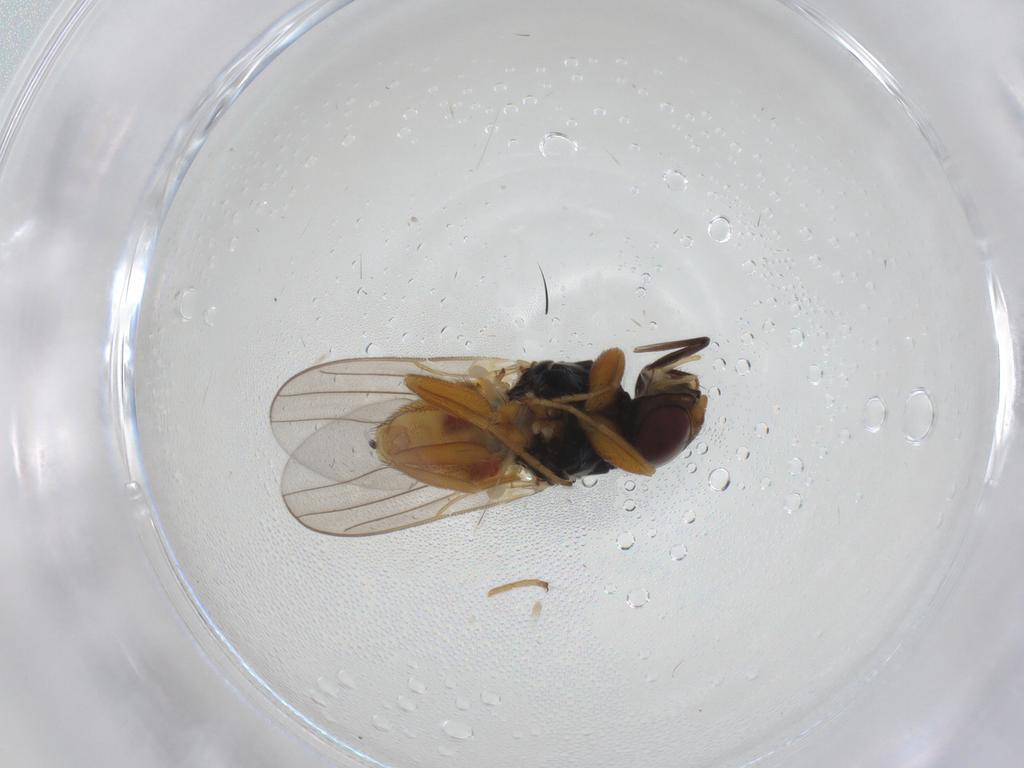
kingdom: Animalia
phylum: Arthropoda
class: Insecta
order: Diptera
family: Chloropidae
